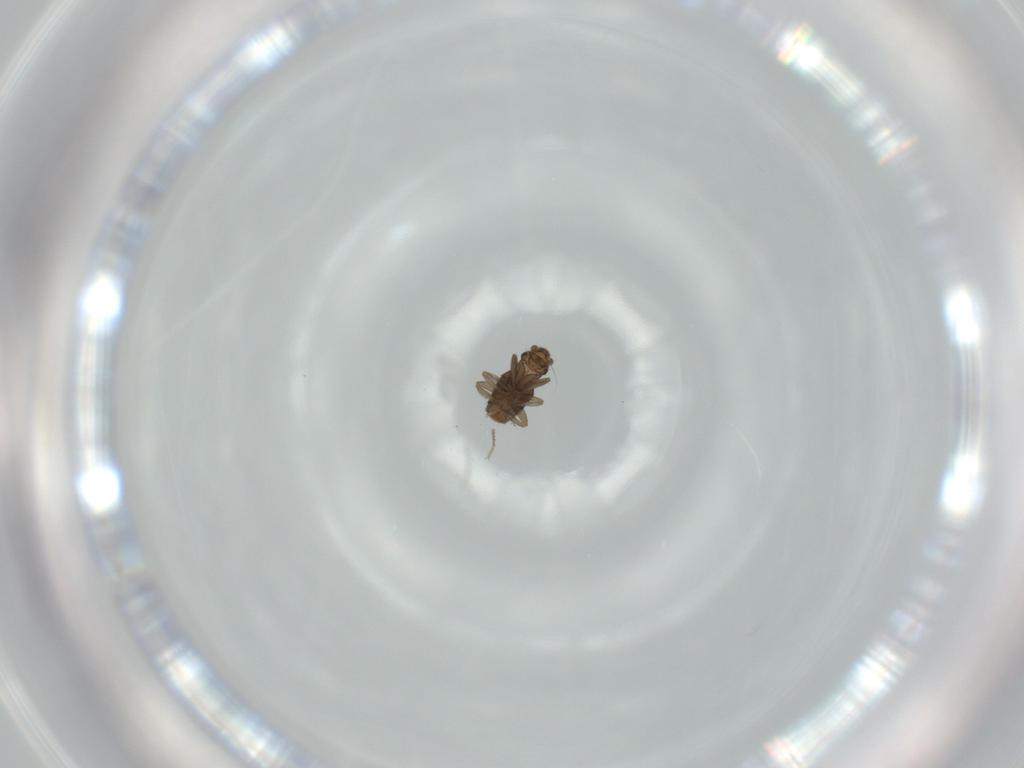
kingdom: Animalia
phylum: Arthropoda
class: Insecta
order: Diptera
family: Phoridae
